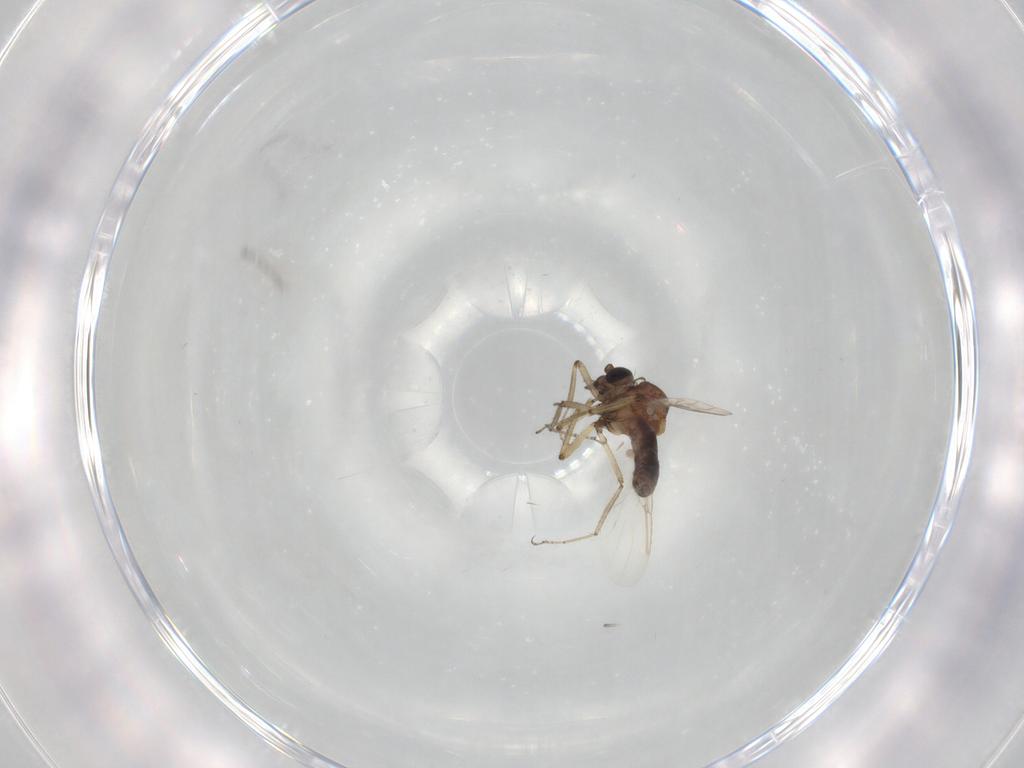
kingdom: Animalia
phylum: Arthropoda
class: Insecta
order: Diptera
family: Ceratopogonidae
